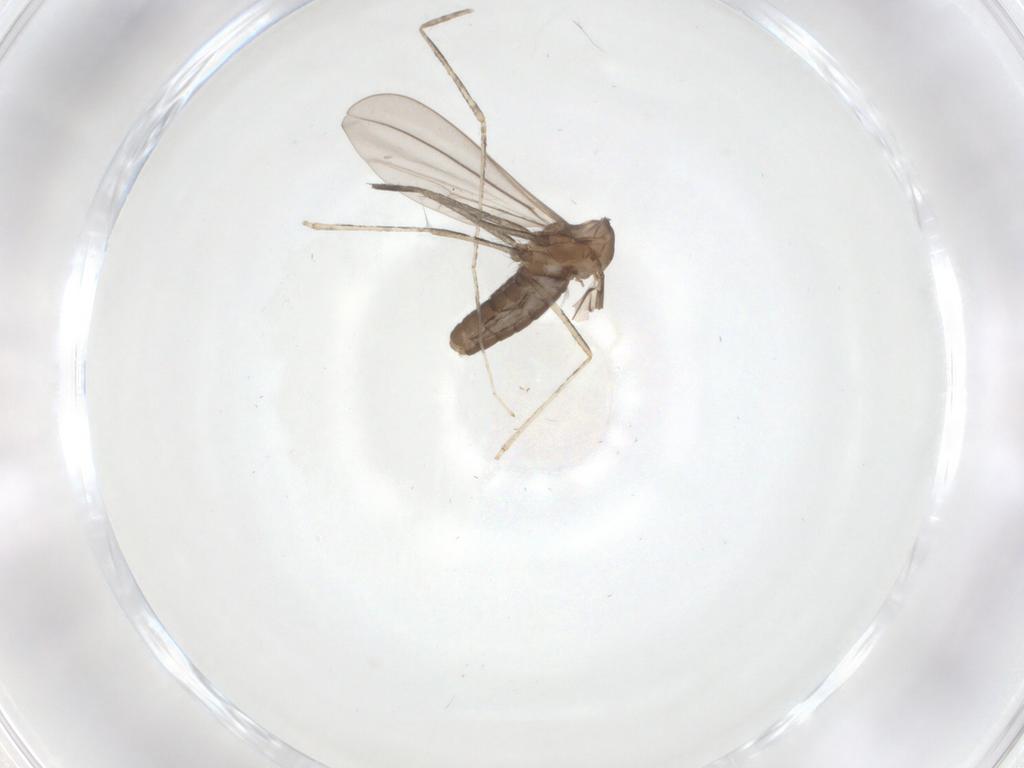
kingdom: Animalia
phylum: Arthropoda
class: Insecta
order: Diptera
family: Cecidomyiidae
